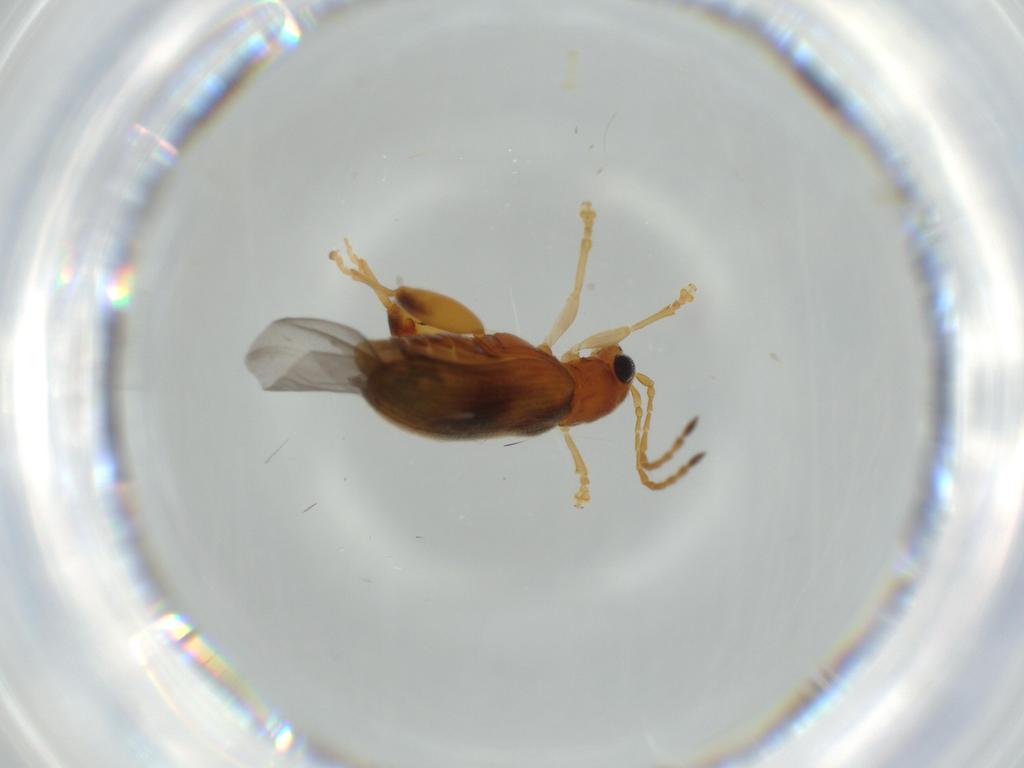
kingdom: Animalia
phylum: Arthropoda
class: Insecta
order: Coleoptera
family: Chrysomelidae
